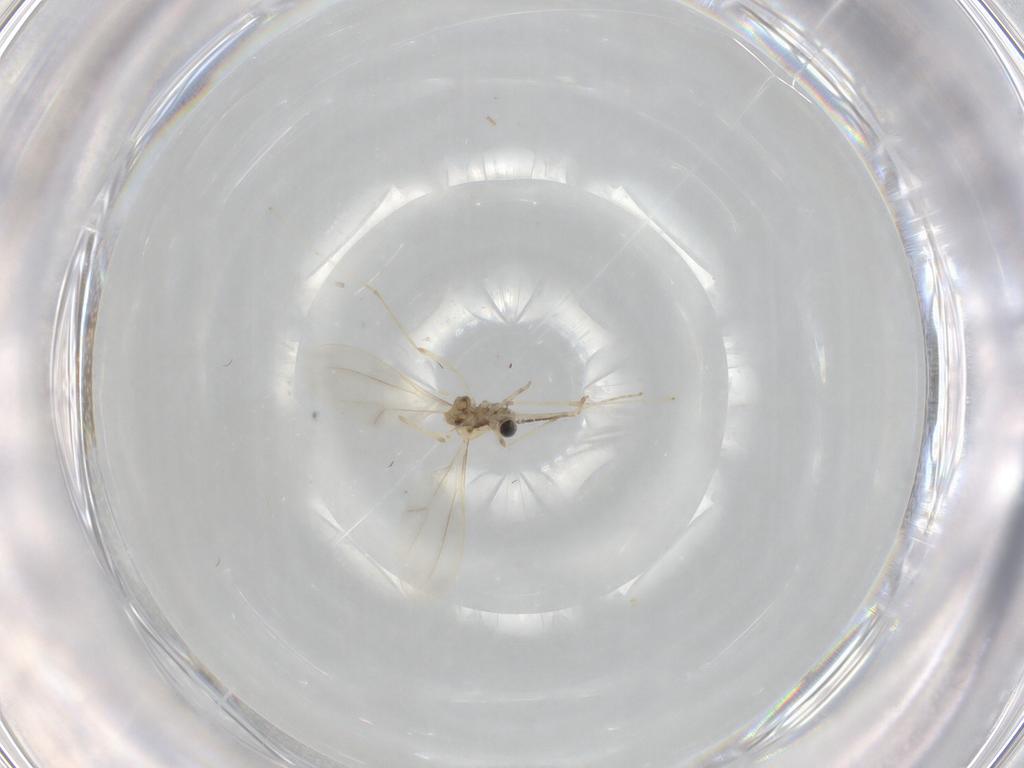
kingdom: Animalia
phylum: Arthropoda
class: Insecta
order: Diptera
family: Cecidomyiidae
